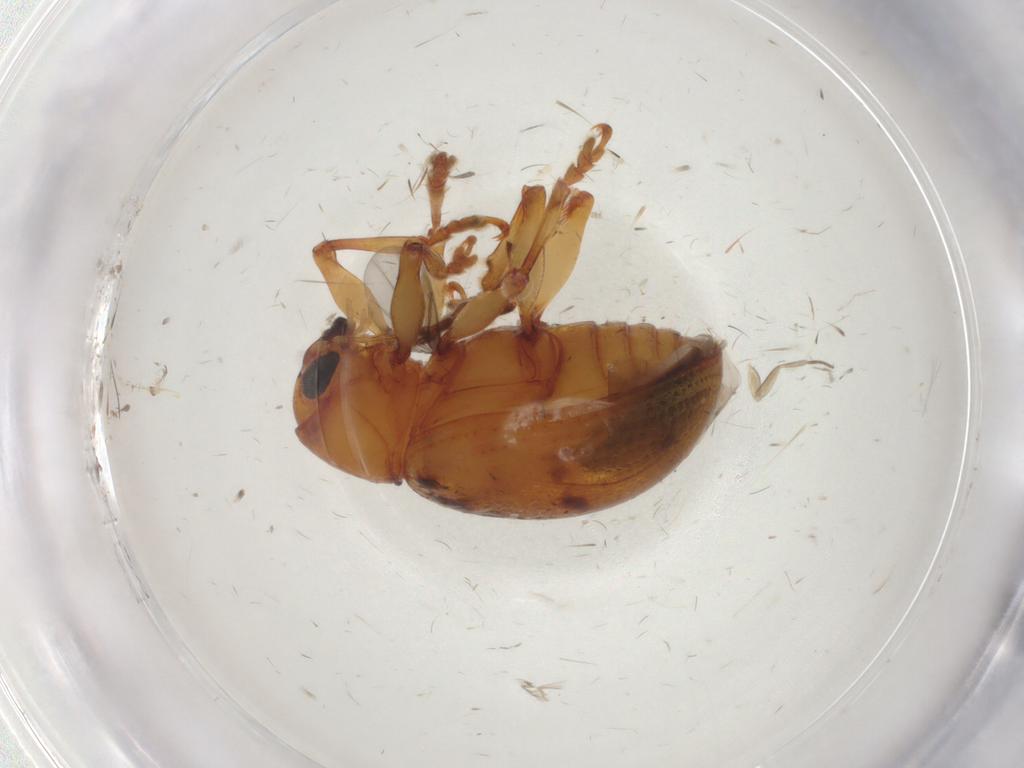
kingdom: Animalia
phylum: Arthropoda
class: Insecta
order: Coleoptera
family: Chrysomelidae
